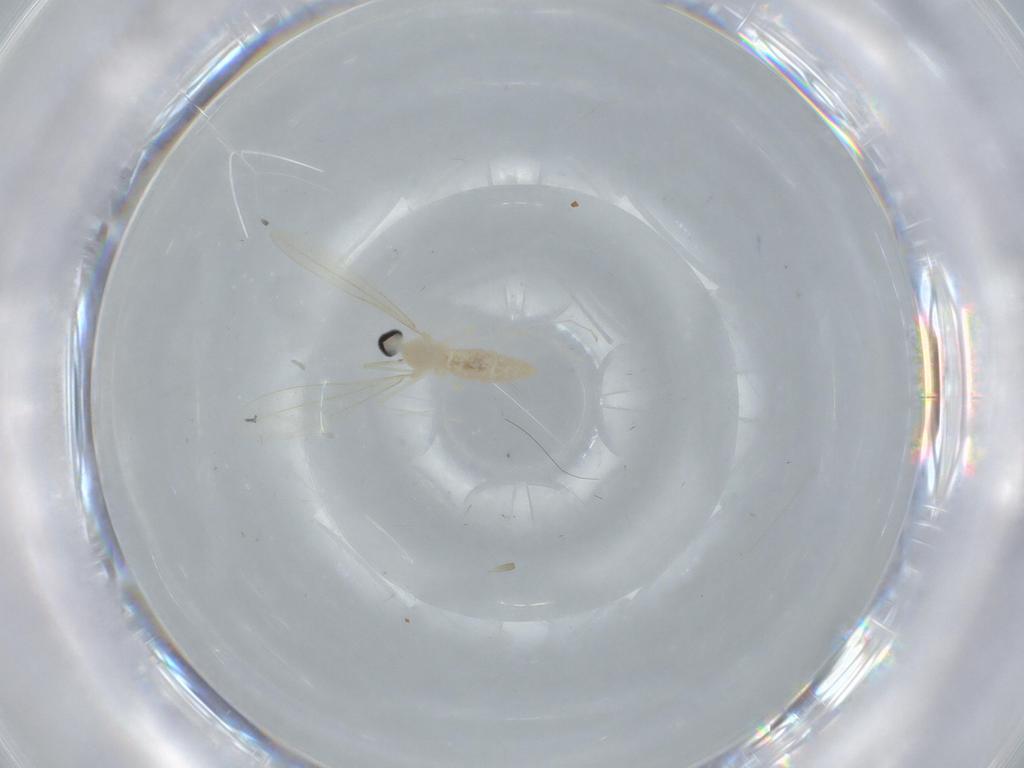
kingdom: Animalia
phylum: Arthropoda
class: Insecta
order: Diptera
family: Cecidomyiidae
